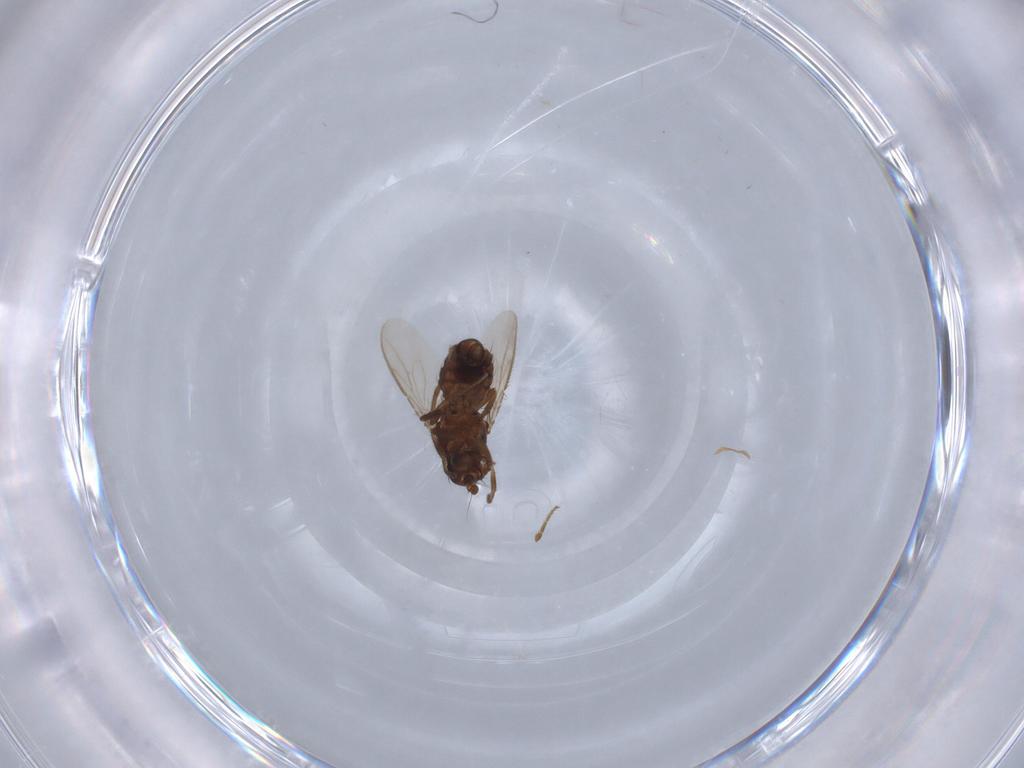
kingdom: Animalia
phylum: Arthropoda
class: Insecta
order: Diptera
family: Sphaeroceridae
